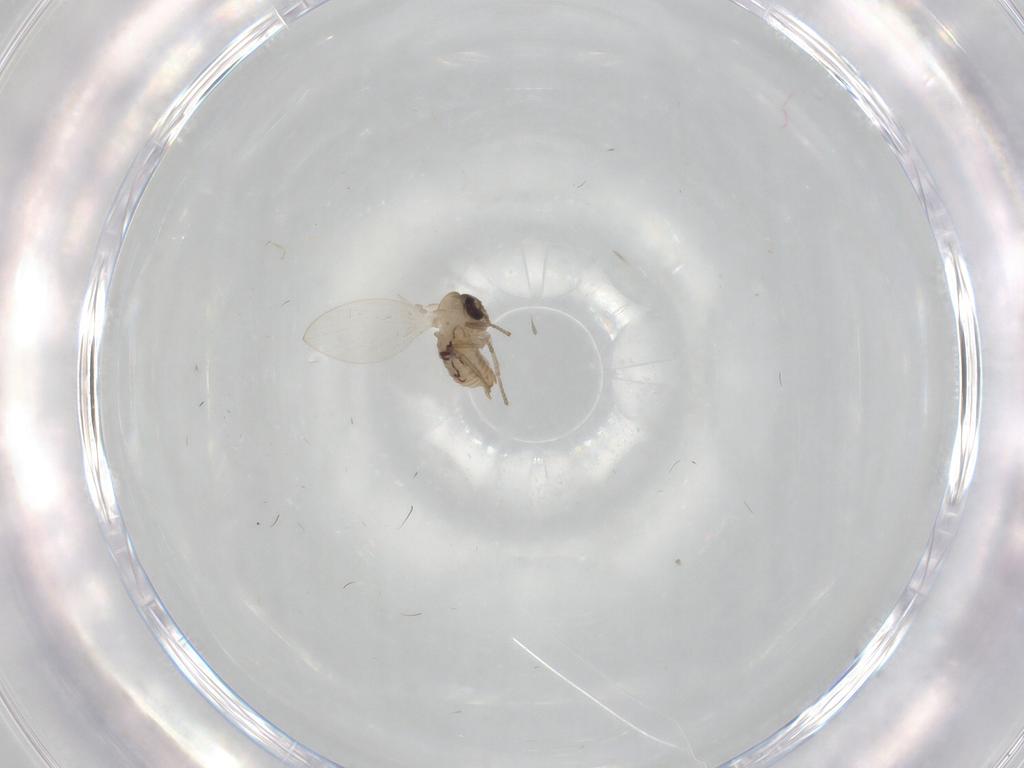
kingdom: Animalia
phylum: Arthropoda
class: Insecta
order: Diptera
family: Psychodidae
